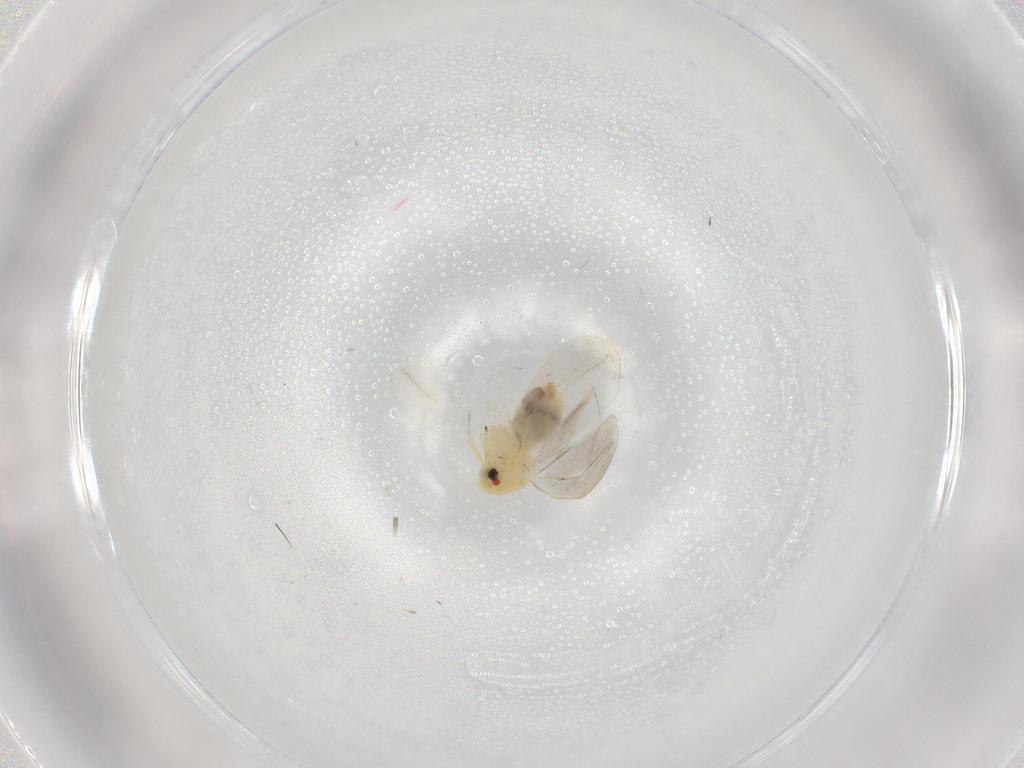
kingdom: Animalia
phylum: Arthropoda
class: Insecta
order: Hemiptera
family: Aleyrodidae
